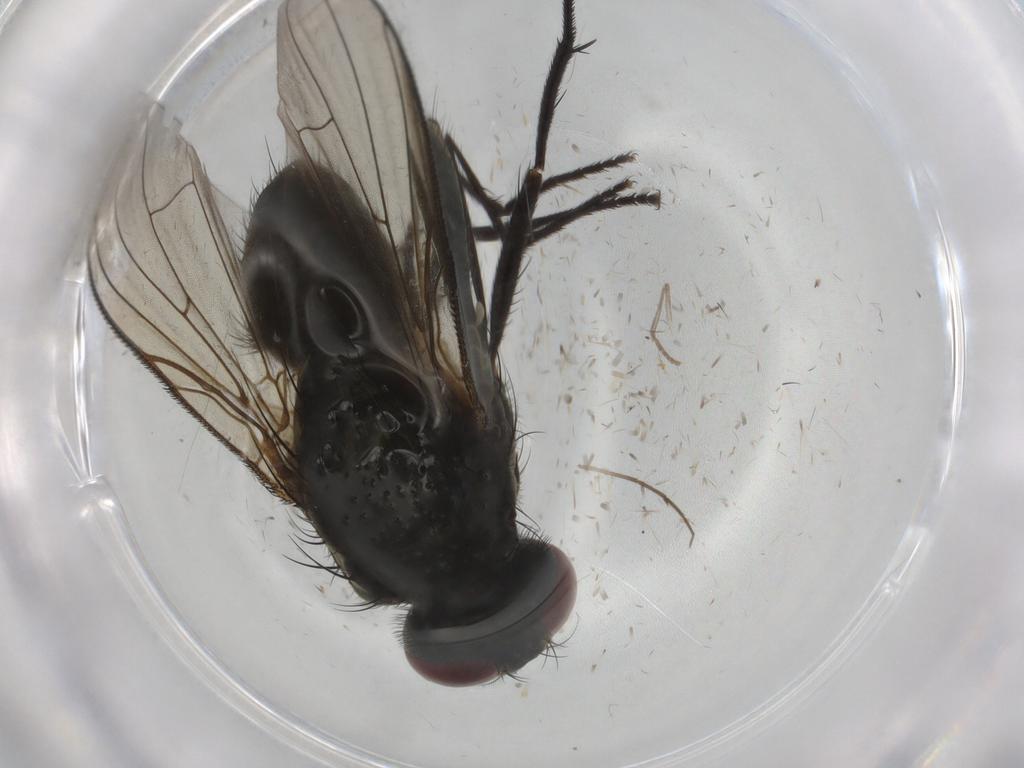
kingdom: Animalia
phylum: Arthropoda
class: Insecta
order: Diptera
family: Muscidae
